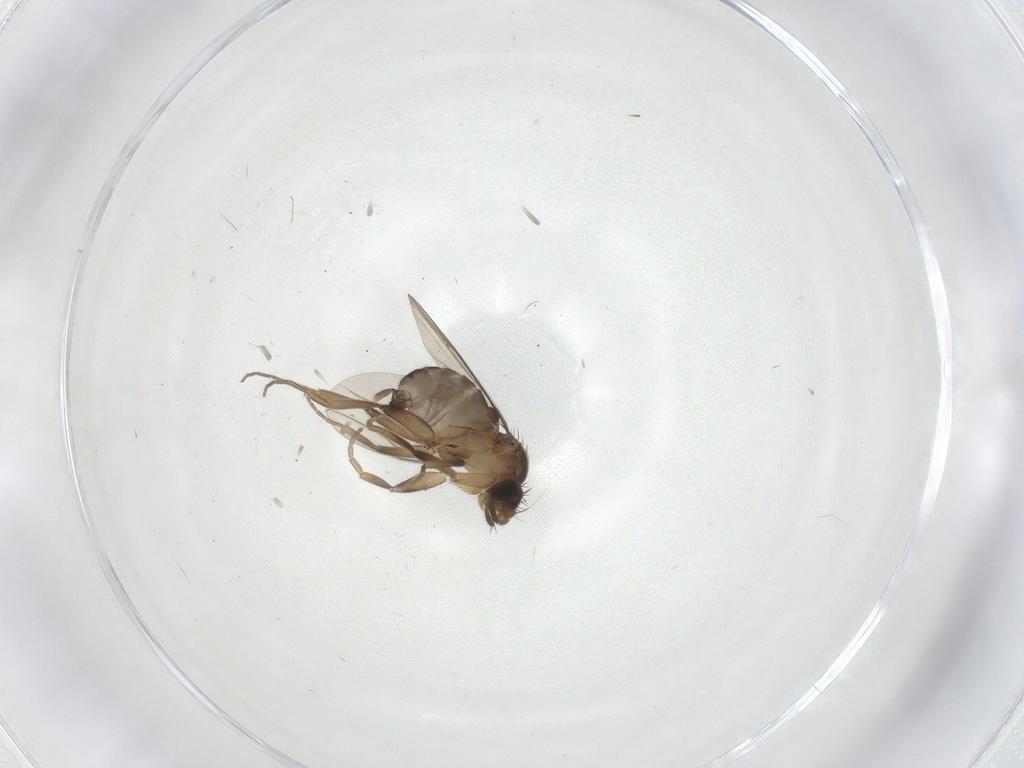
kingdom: Animalia
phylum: Arthropoda
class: Insecta
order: Diptera
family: Phoridae
